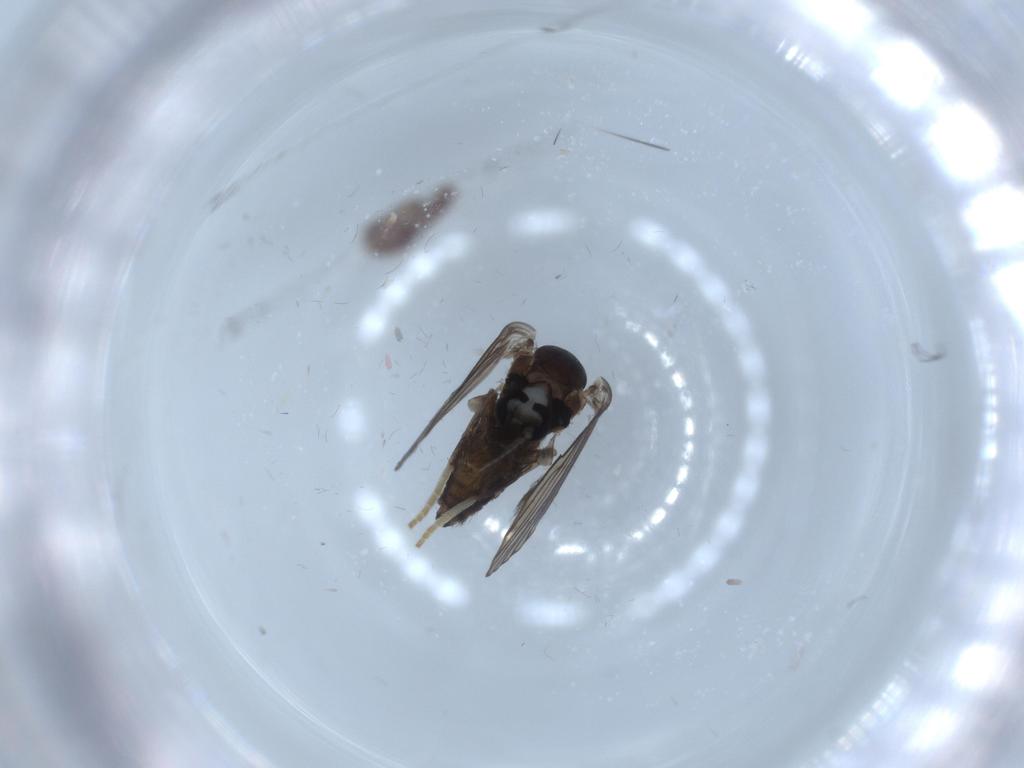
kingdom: Animalia
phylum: Arthropoda
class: Insecta
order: Diptera
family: Psychodidae
